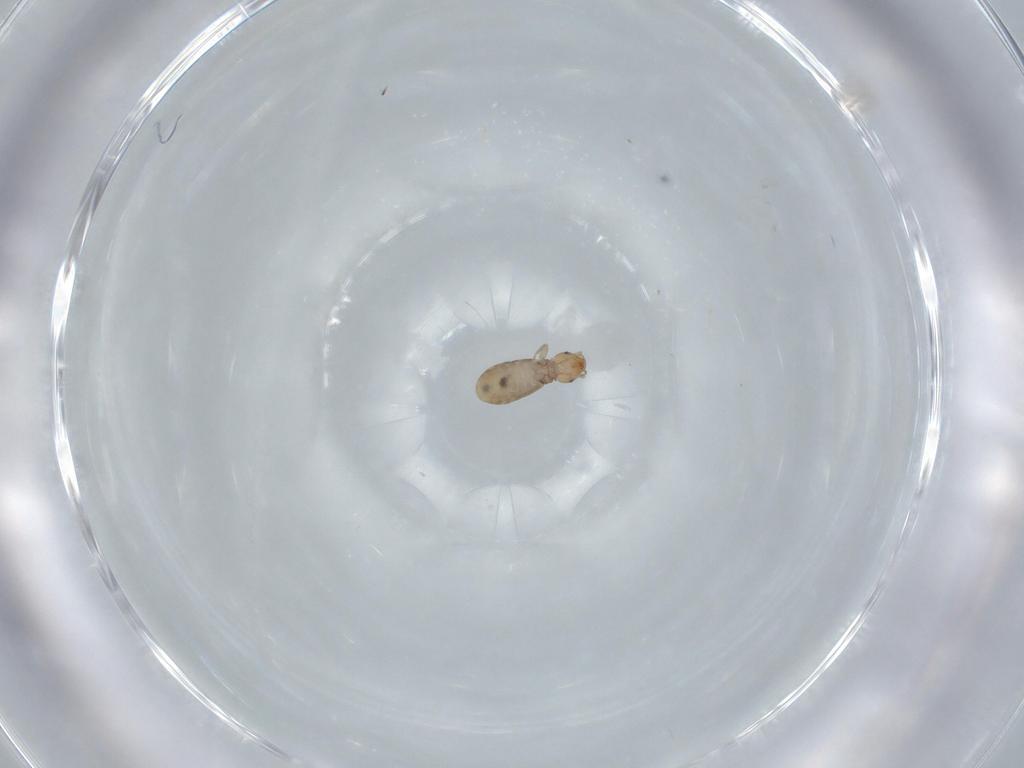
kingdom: Animalia
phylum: Arthropoda
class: Insecta
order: Psocodea
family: Liposcelididae
